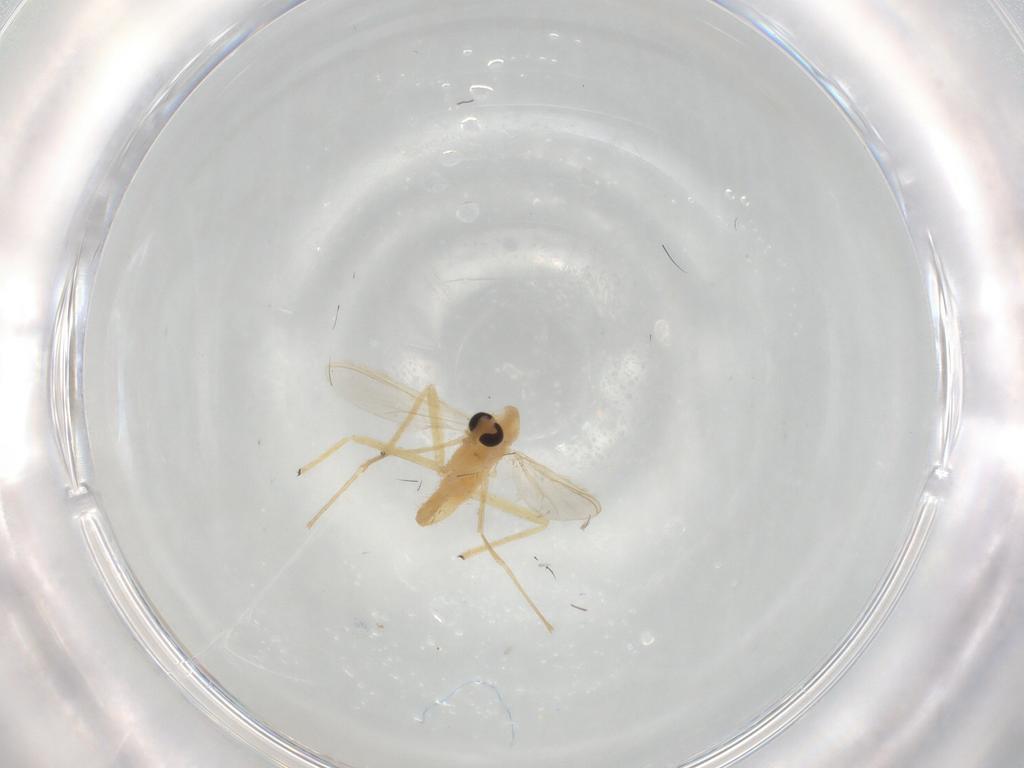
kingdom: Animalia
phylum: Arthropoda
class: Insecta
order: Diptera
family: Chironomidae
